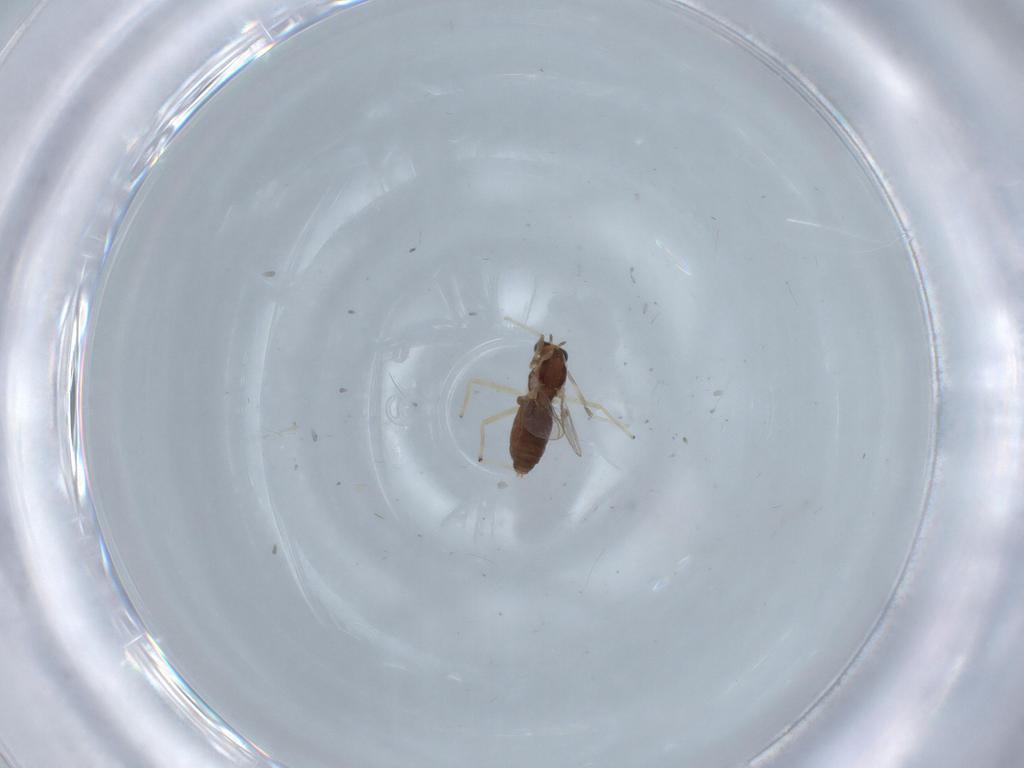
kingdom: Animalia
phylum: Arthropoda
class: Insecta
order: Diptera
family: Chironomidae
